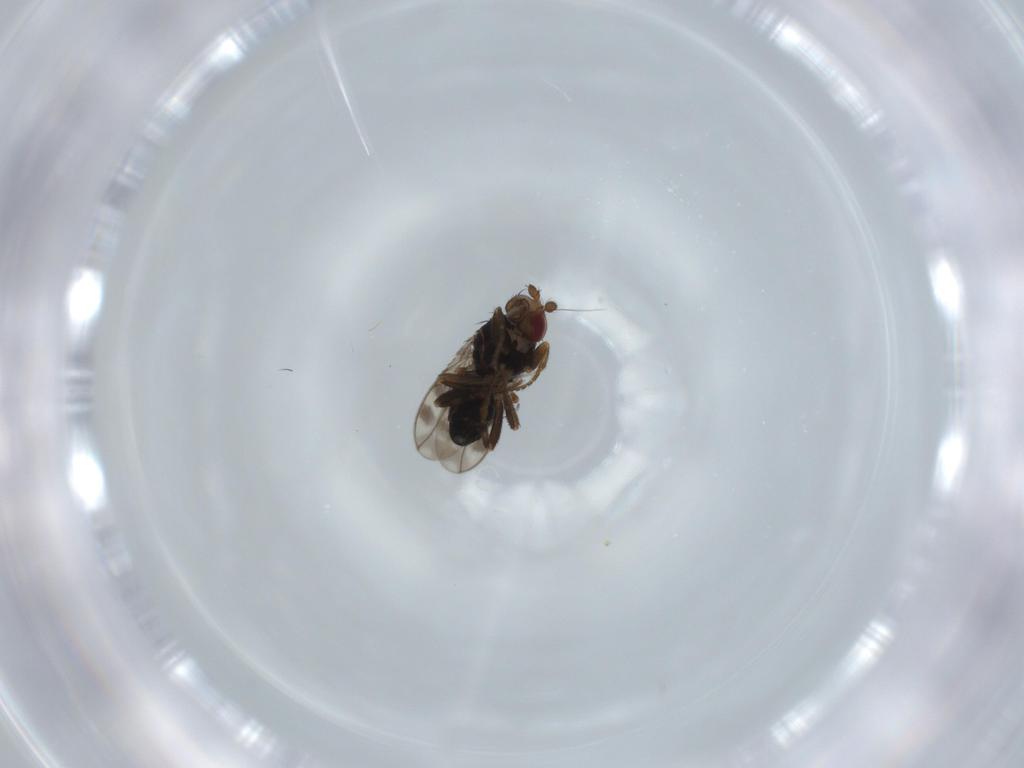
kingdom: Animalia
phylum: Arthropoda
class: Insecta
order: Diptera
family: Sphaeroceridae
